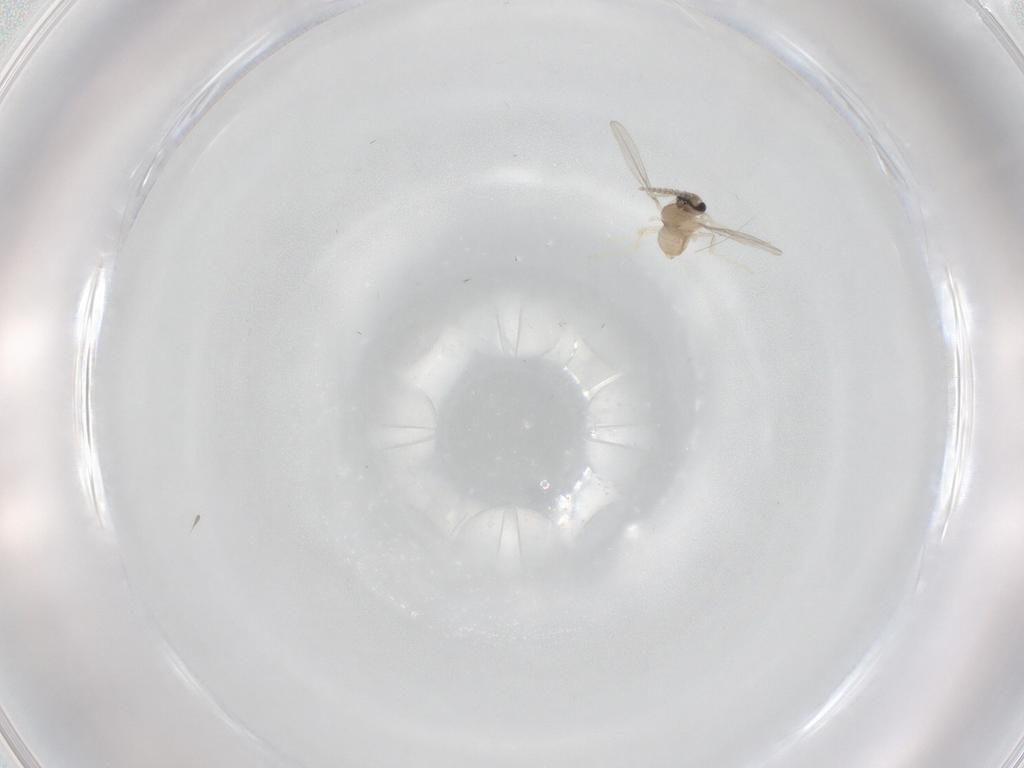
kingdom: Animalia
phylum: Arthropoda
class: Insecta
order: Diptera
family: Cecidomyiidae
